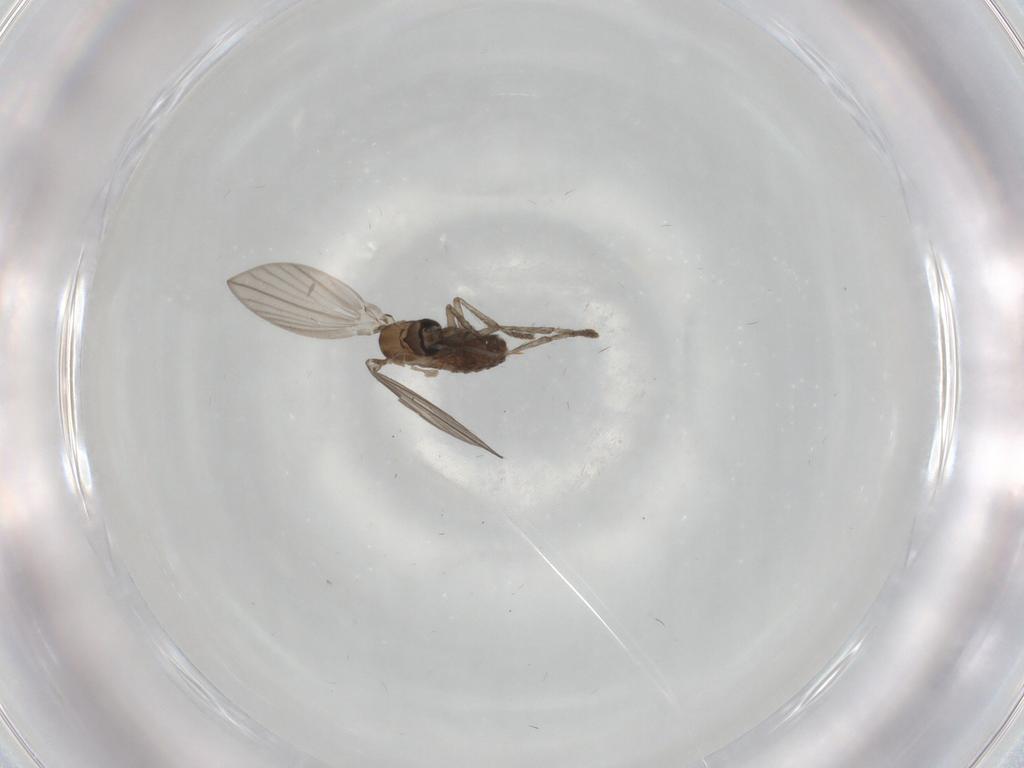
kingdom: Animalia
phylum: Arthropoda
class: Insecta
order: Diptera
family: Psychodidae
